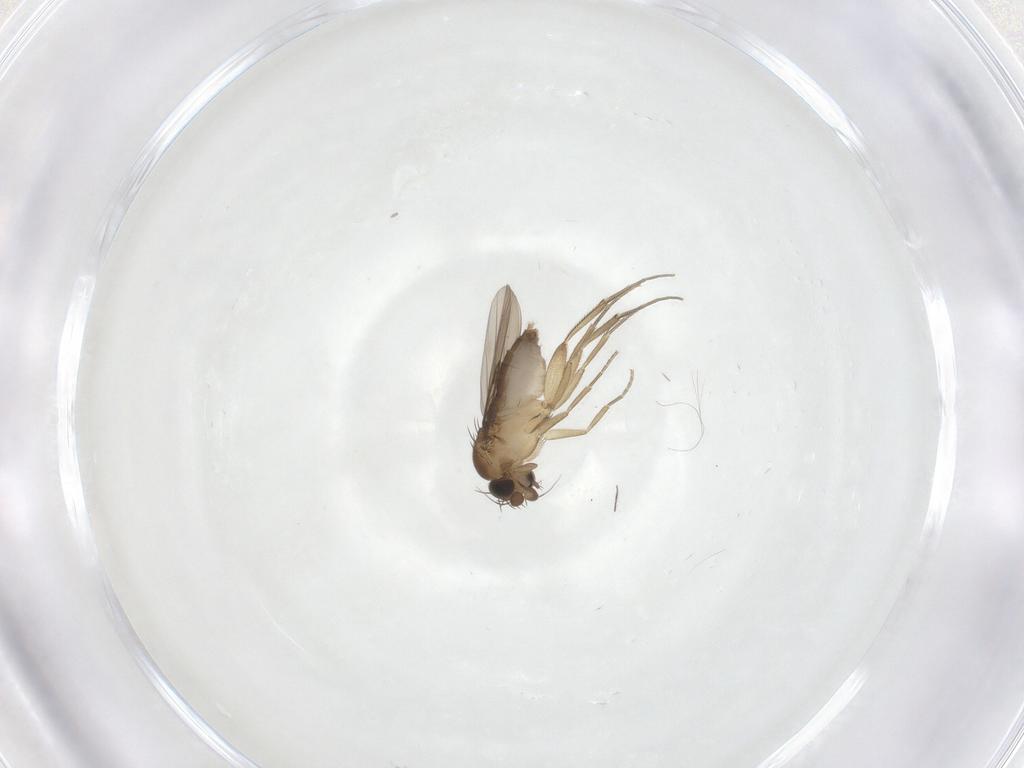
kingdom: Animalia
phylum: Arthropoda
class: Insecta
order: Diptera
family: Phoridae
